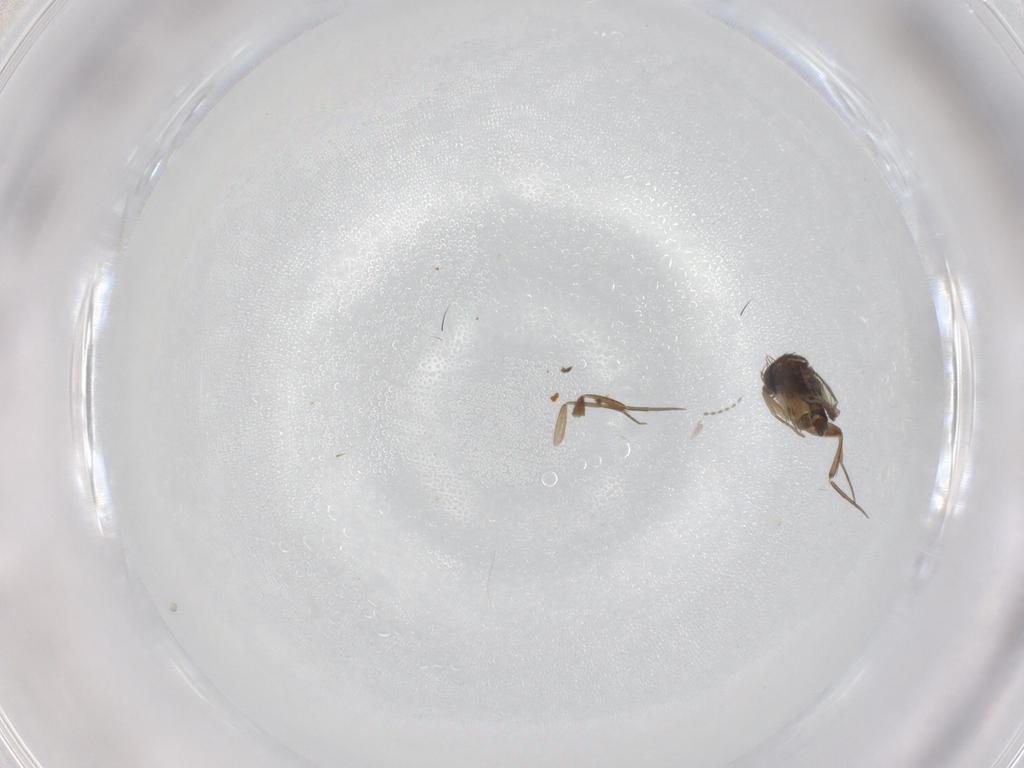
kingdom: Animalia
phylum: Arthropoda
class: Insecta
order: Diptera
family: Phoridae
